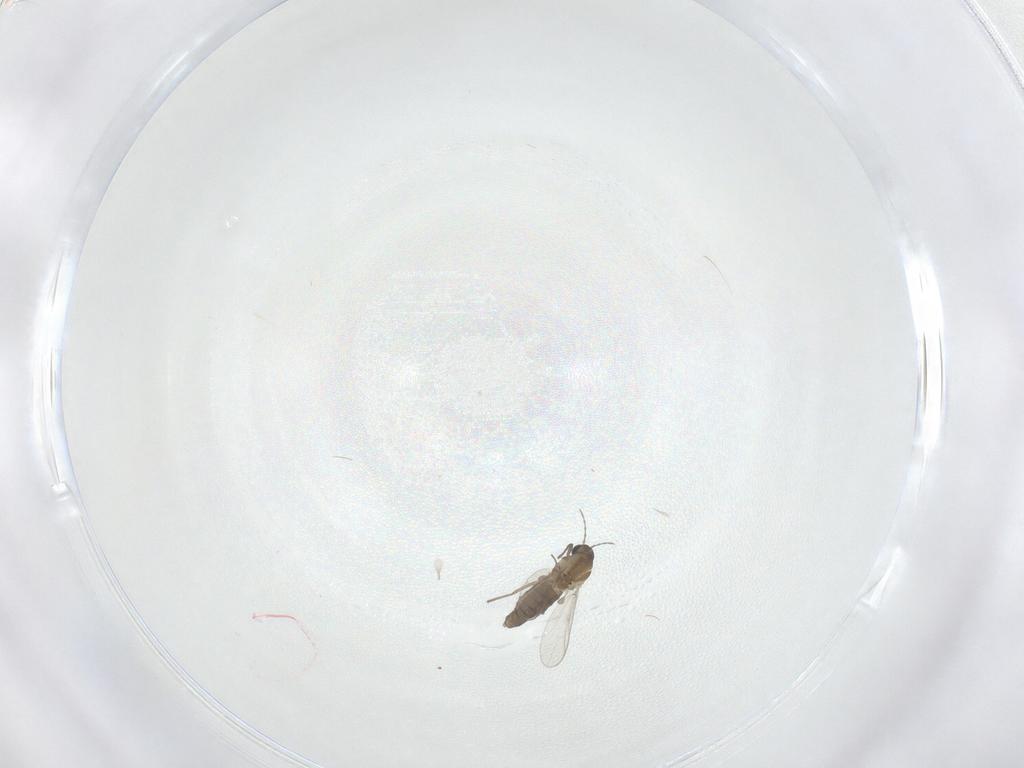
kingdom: Animalia
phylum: Arthropoda
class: Insecta
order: Diptera
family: Chironomidae
